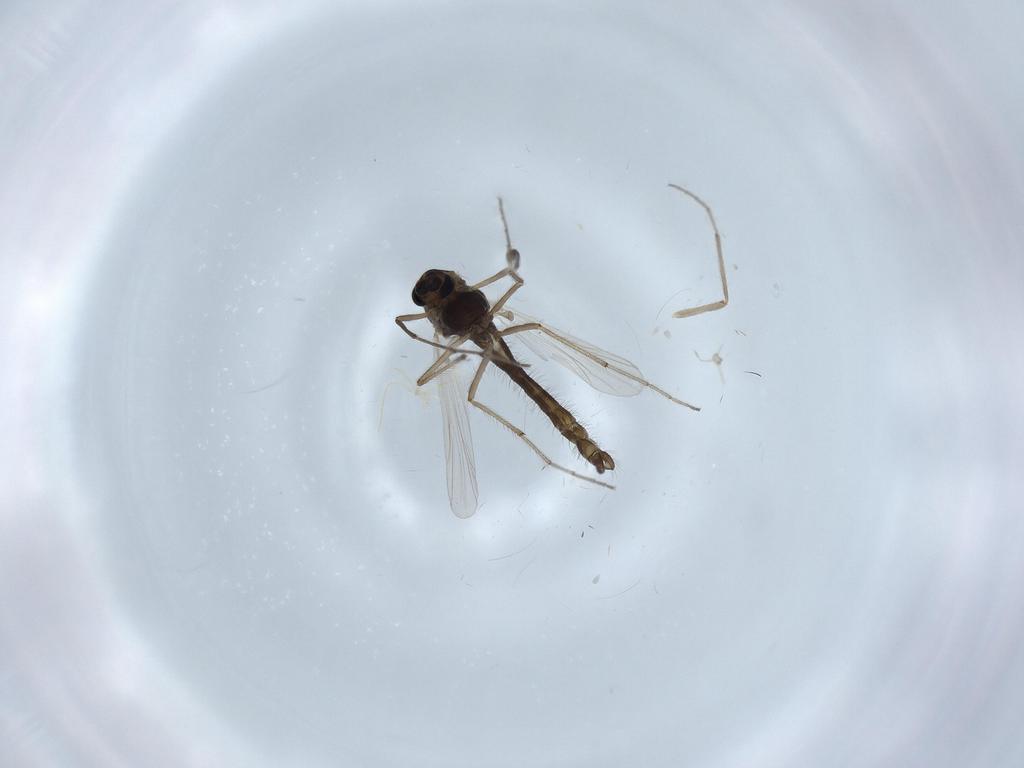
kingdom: Animalia
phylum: Arthropoda
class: Insecta
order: Diptera
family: Chironomidae
